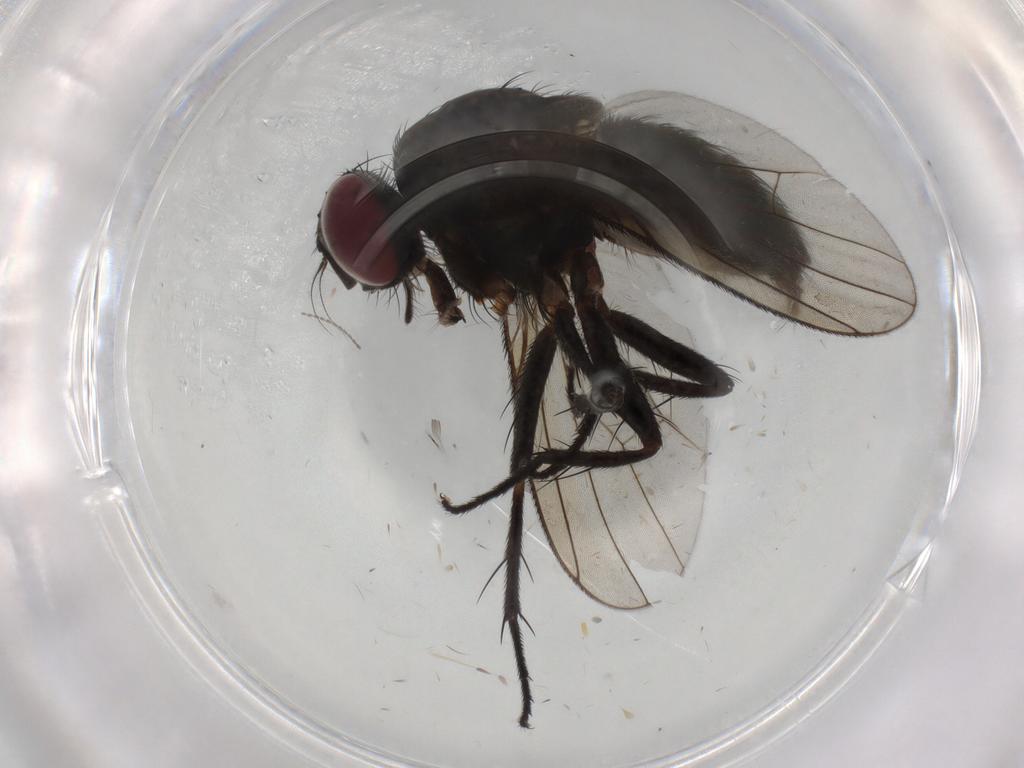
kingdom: Animalia
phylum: Arthropoda
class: Insecta
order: Diptera
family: Muscidae
